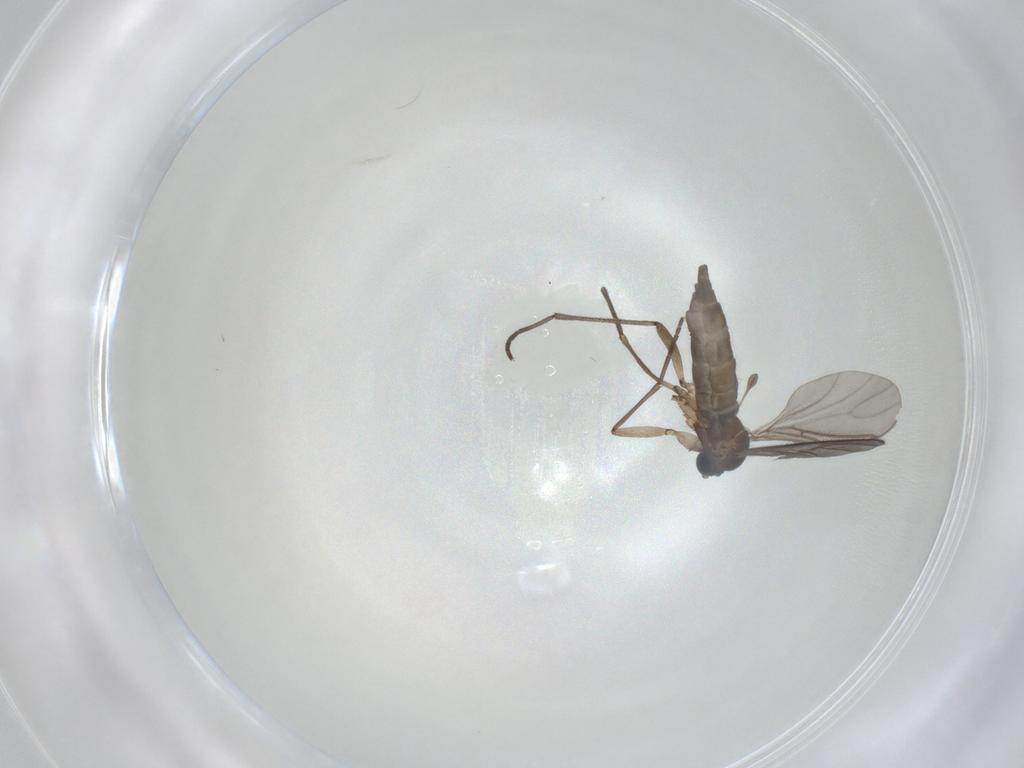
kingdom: Animalia
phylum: Arthropoda
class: Insecta
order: Diptera
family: Sciaridae
